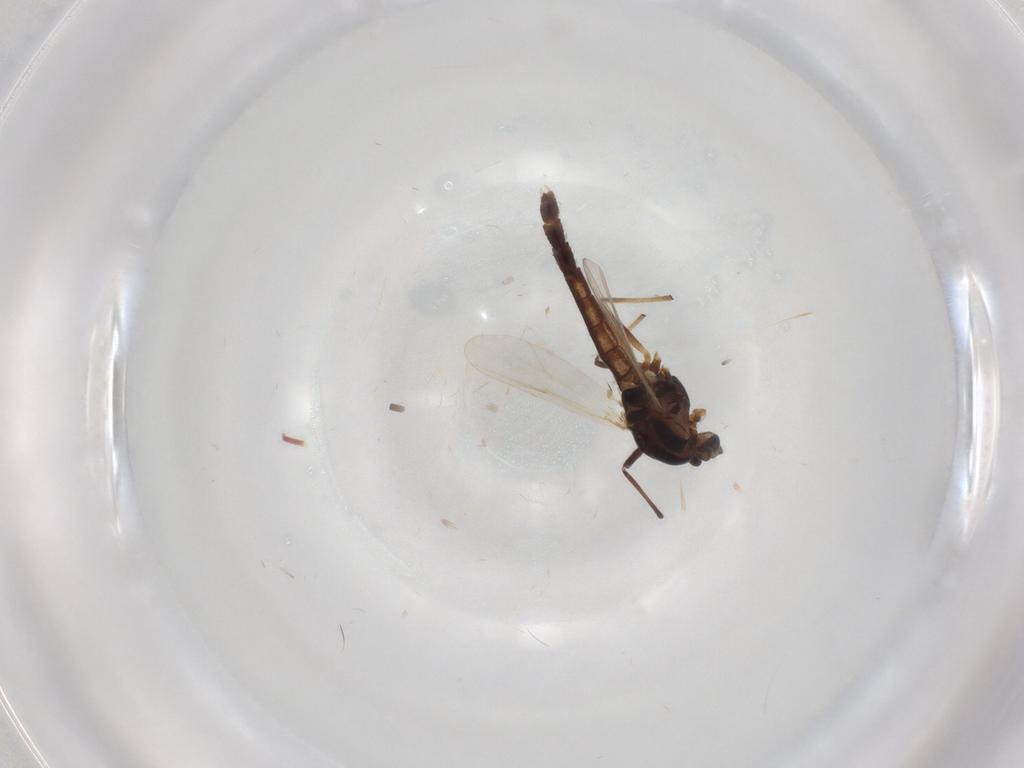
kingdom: Animalia
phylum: Arthropoda
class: Insecta
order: Diptera
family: Chironomidae
